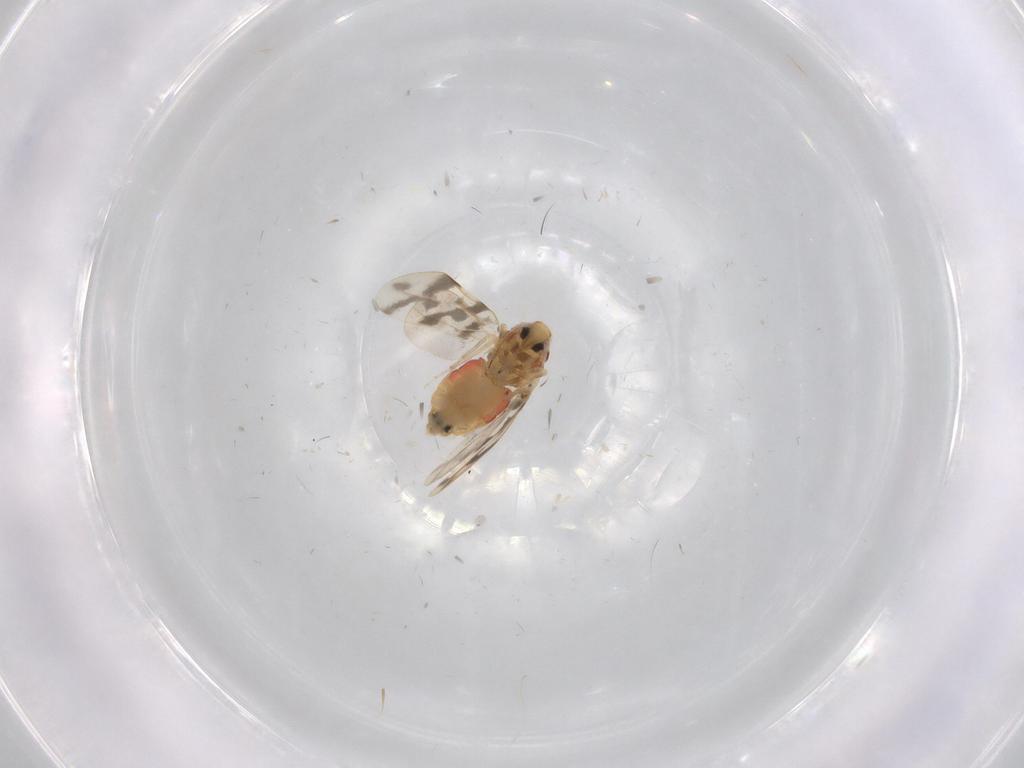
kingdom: Animalia
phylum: Arthropoda
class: Insecta
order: Hemiptera
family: Aleyrodidae
